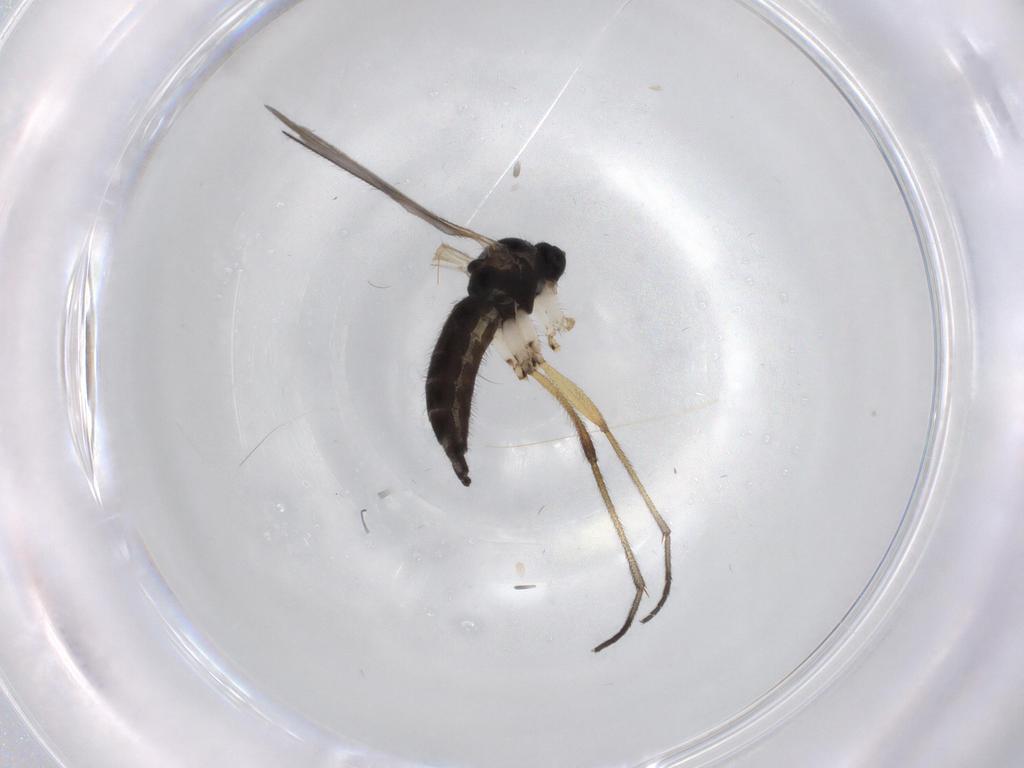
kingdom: Animalia
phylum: Arthropoda
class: Insecta
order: Diptera
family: Sciaridae
